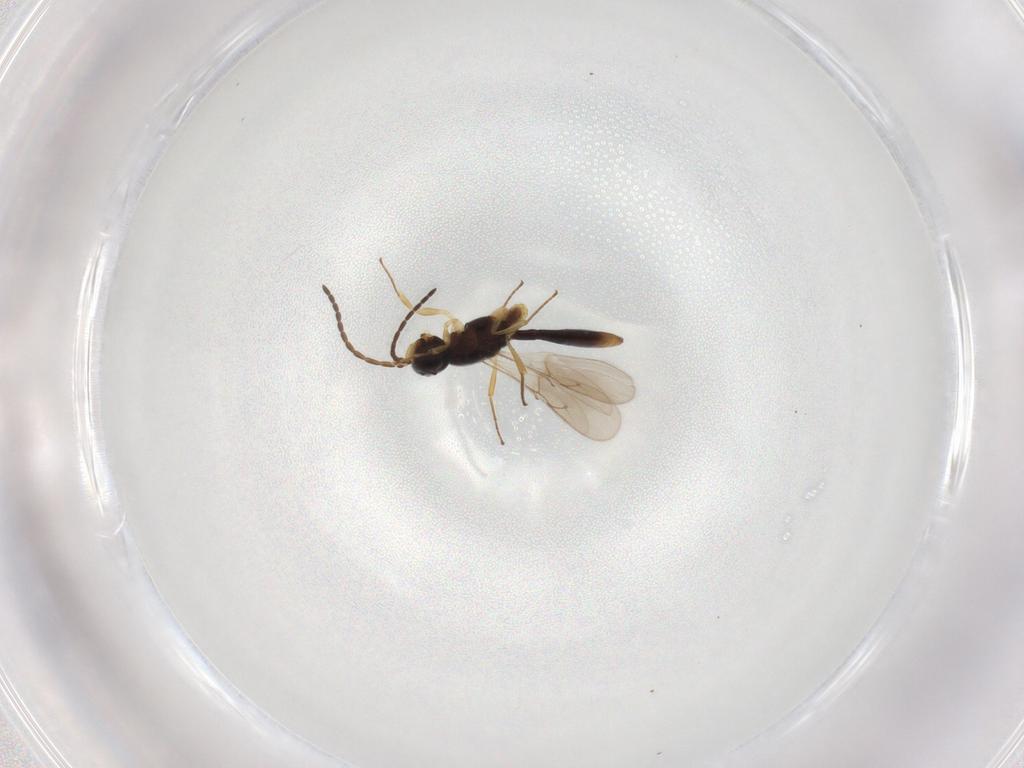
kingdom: Animalia
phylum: Arthropoda
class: Insecta
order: Hymenoptera
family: Scelionidae
